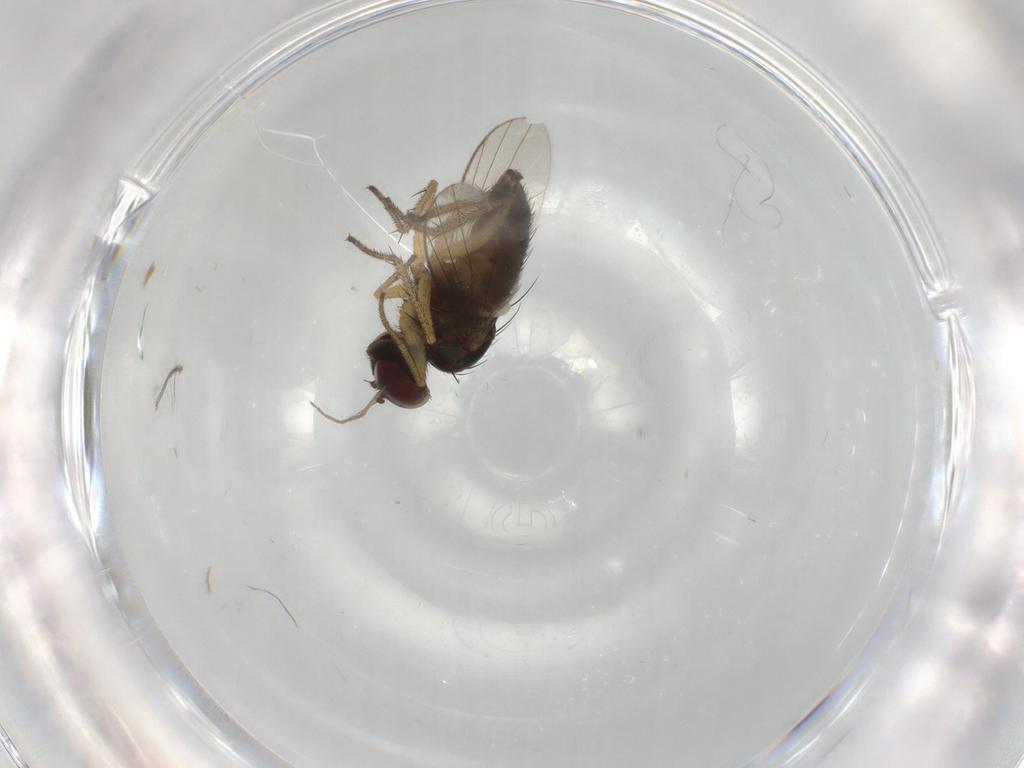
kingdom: Animalia
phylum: Arthropoda
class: Insecta
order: Diptera
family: Dolichopodidae
